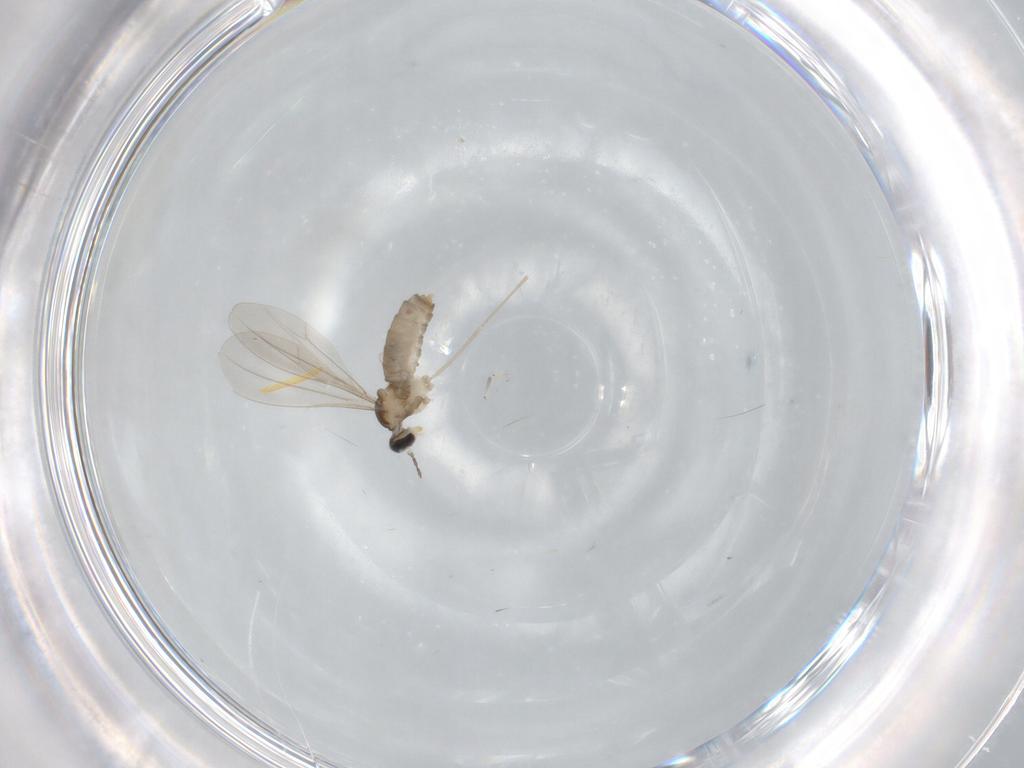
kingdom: Animalia
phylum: Arthropoda
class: Insecta
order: Diptera
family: Cecidomyiidae
